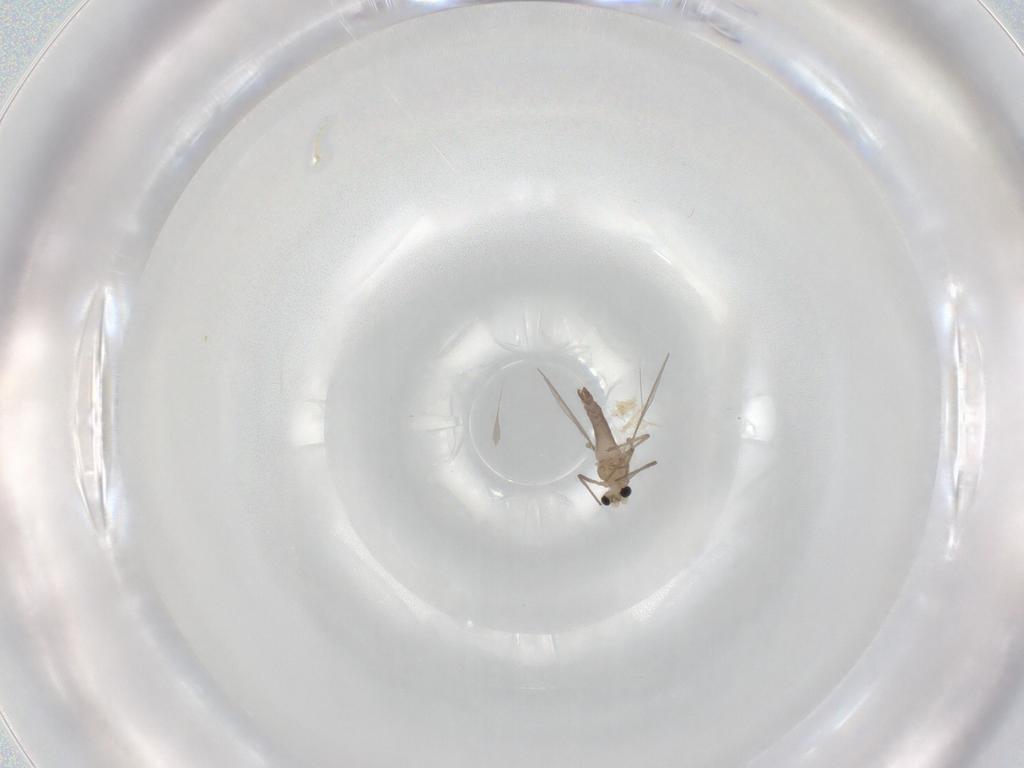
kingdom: Animalia
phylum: Arthropoda
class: Insecta
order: Diptera
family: Chironomidae
